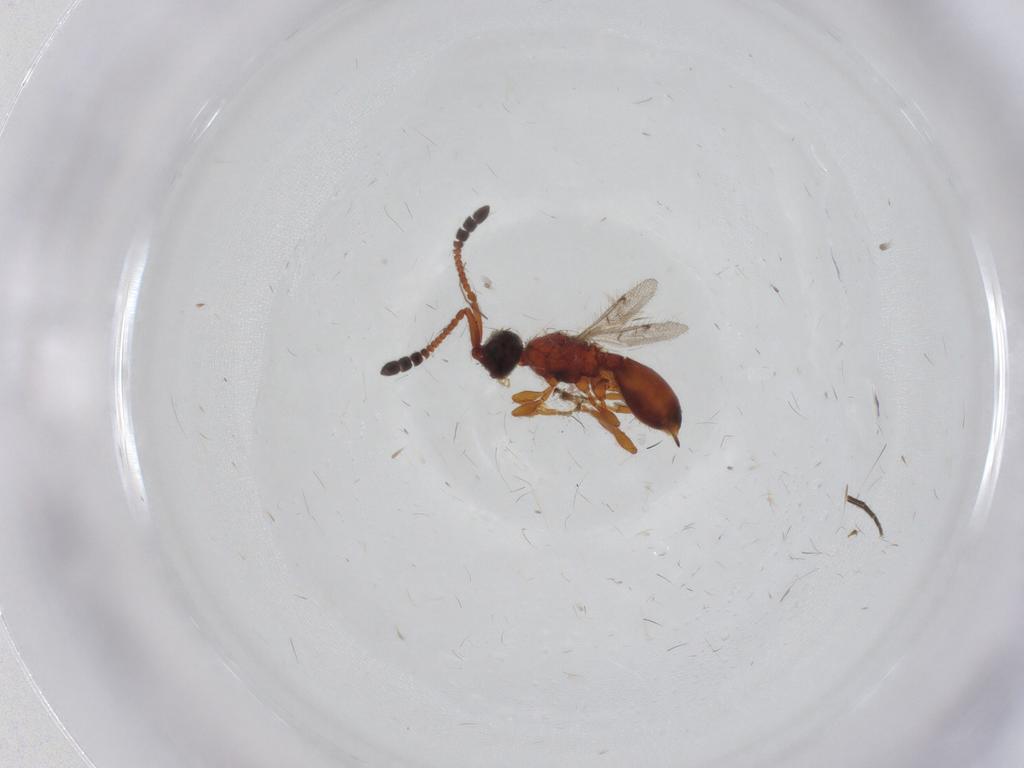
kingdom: Animalia
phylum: Arthropoda
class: Insecta
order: Hymenoptera
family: Diapriidae
